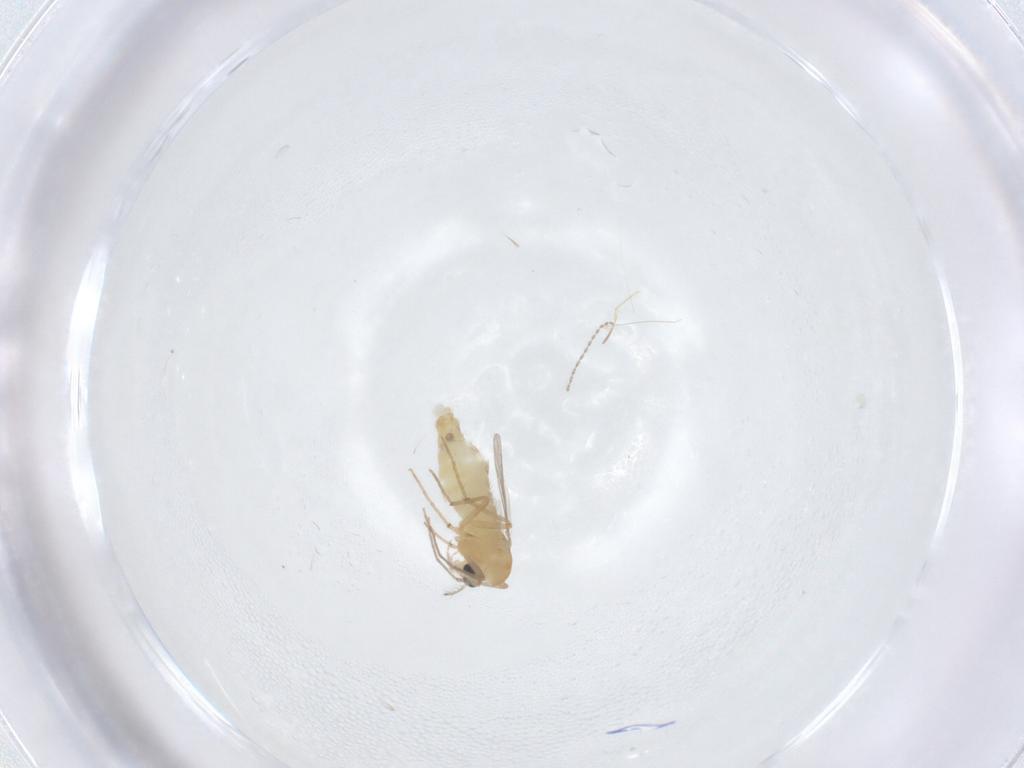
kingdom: Animalia
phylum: Arthropoda
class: Insecta
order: Diptera
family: Chironomidae
